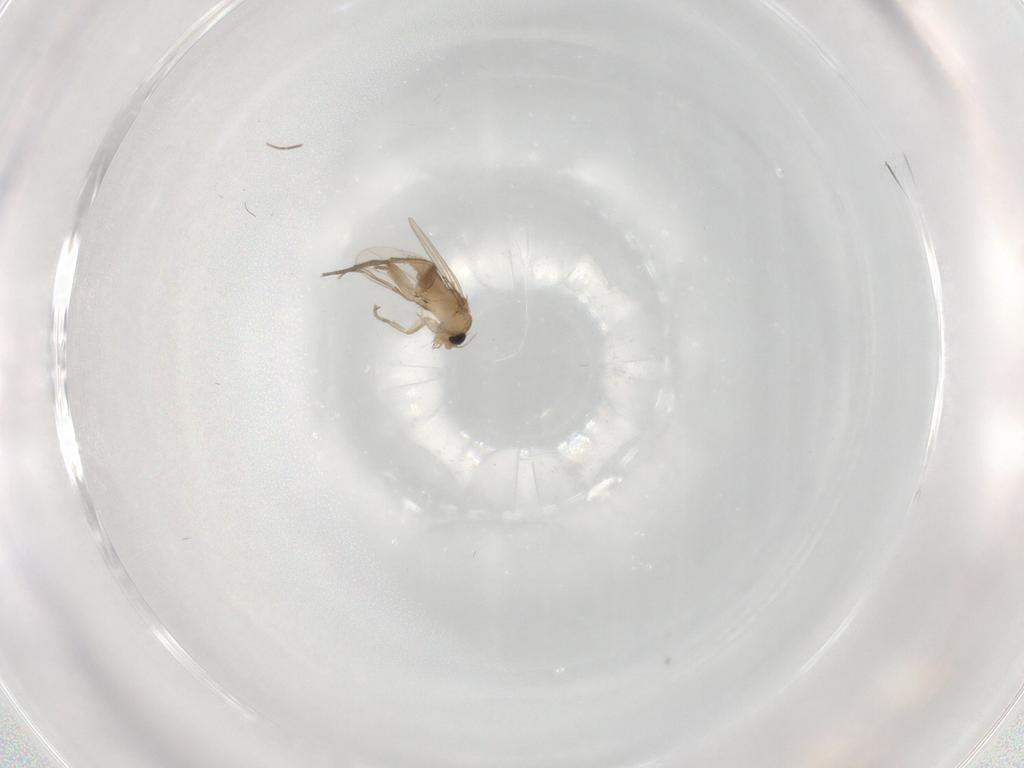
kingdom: Animalia
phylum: Arthropoda
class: Insecta
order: Diptera
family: Phoridae
